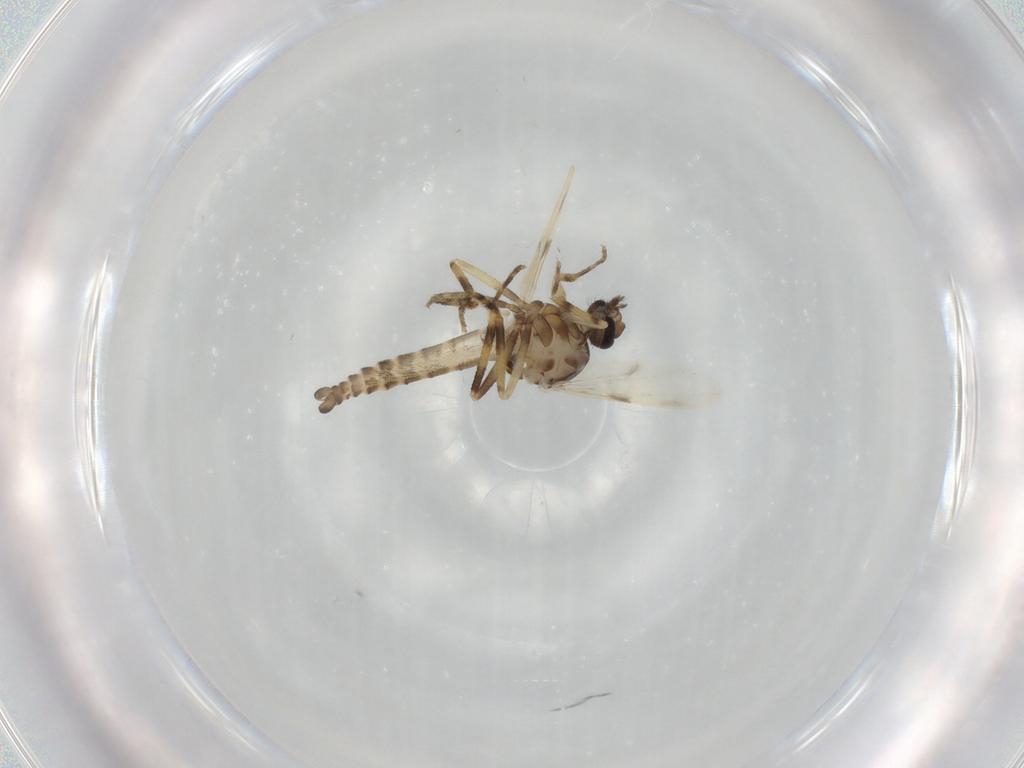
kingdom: Animalia
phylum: Arthropoda
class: Insecta
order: Diptera
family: Ceratopogonidae
